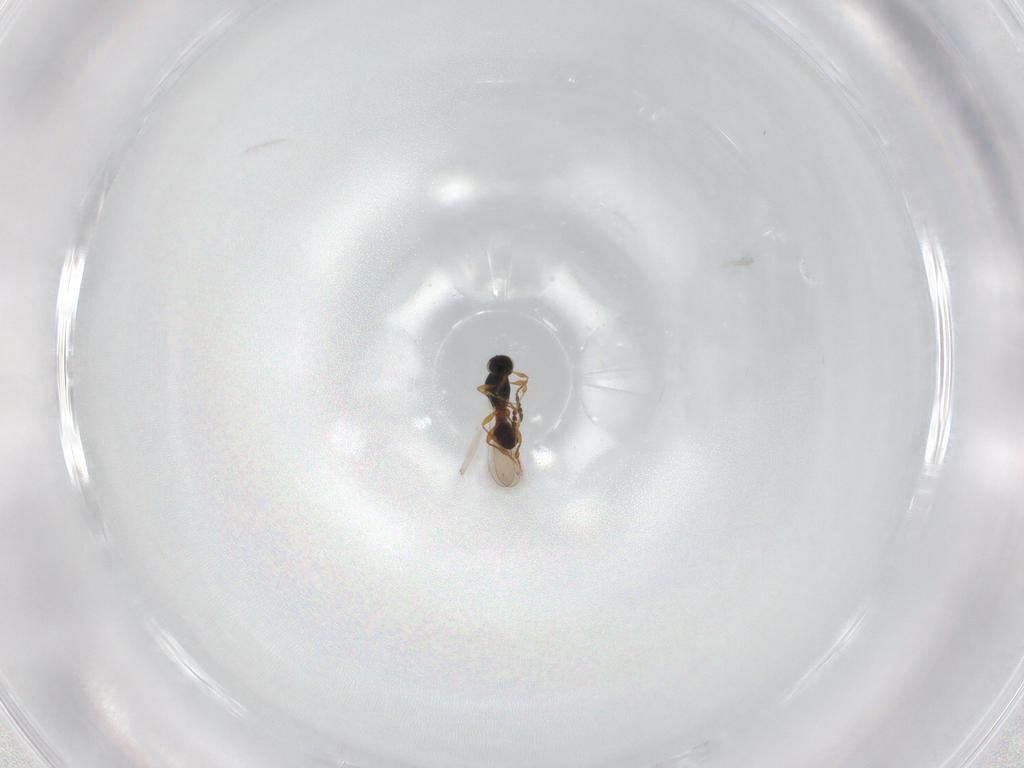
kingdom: Animalia
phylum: Arthropoda
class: Insecta
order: Hymenoptera
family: Platygastridae
